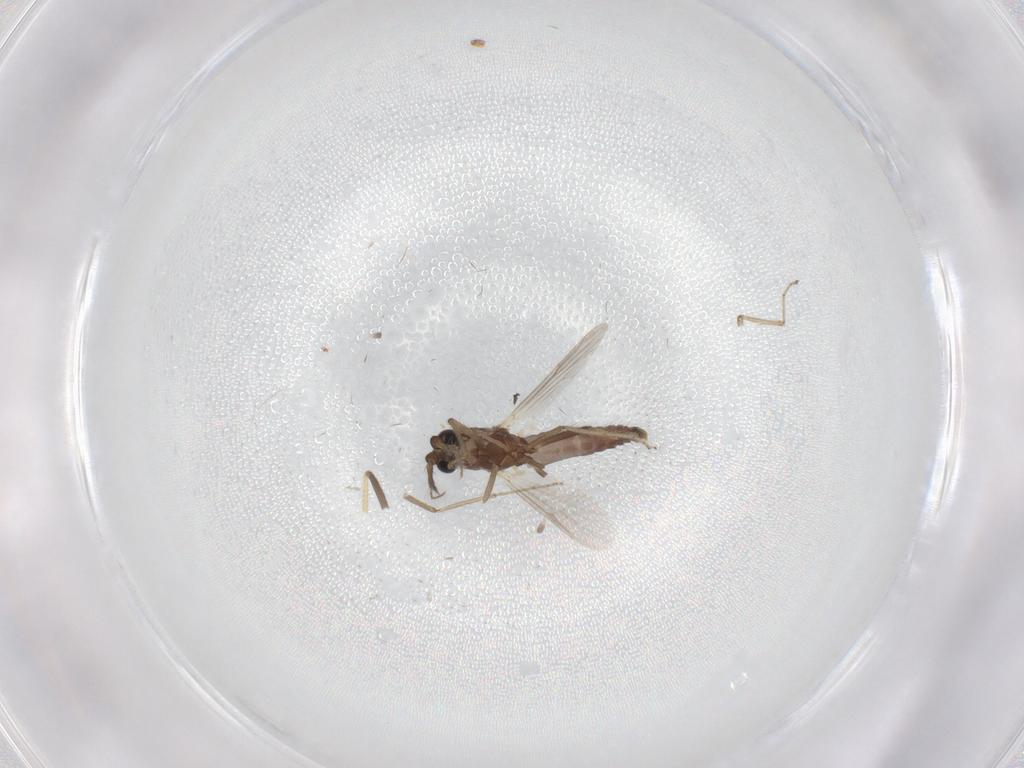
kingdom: Animalia
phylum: Arthropoda
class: Insecta
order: Diptera
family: Ceratopogonidae
